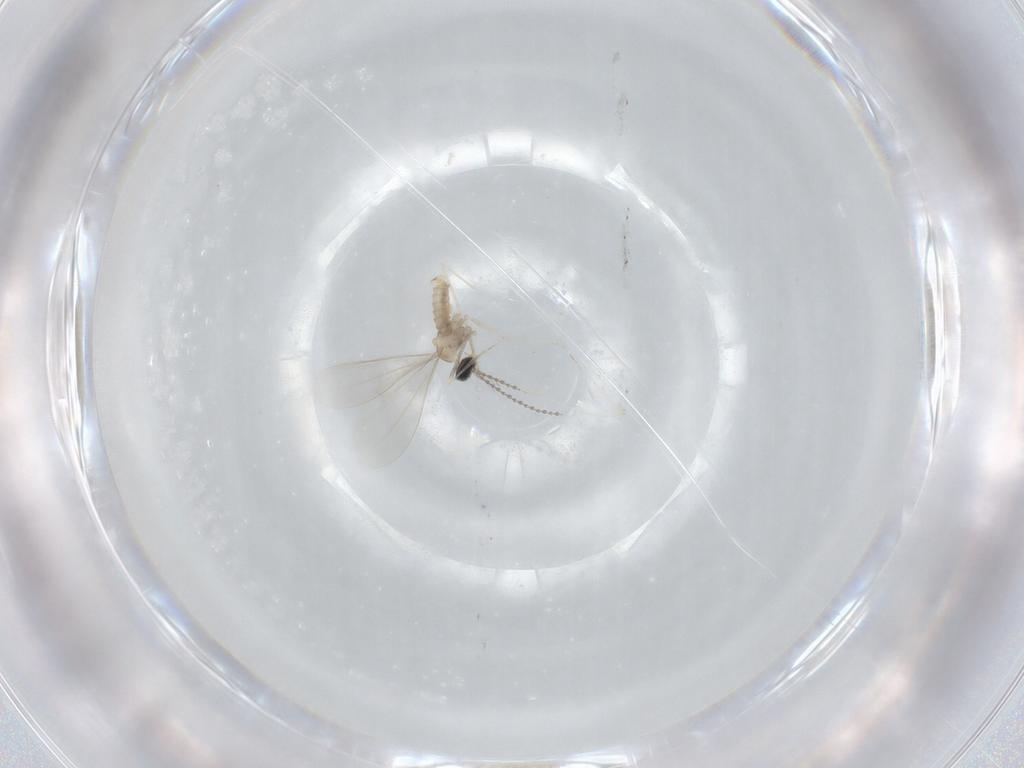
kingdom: Animalia
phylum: Arthropoda
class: Insecta
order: Diptera
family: Cecidomyiidae
